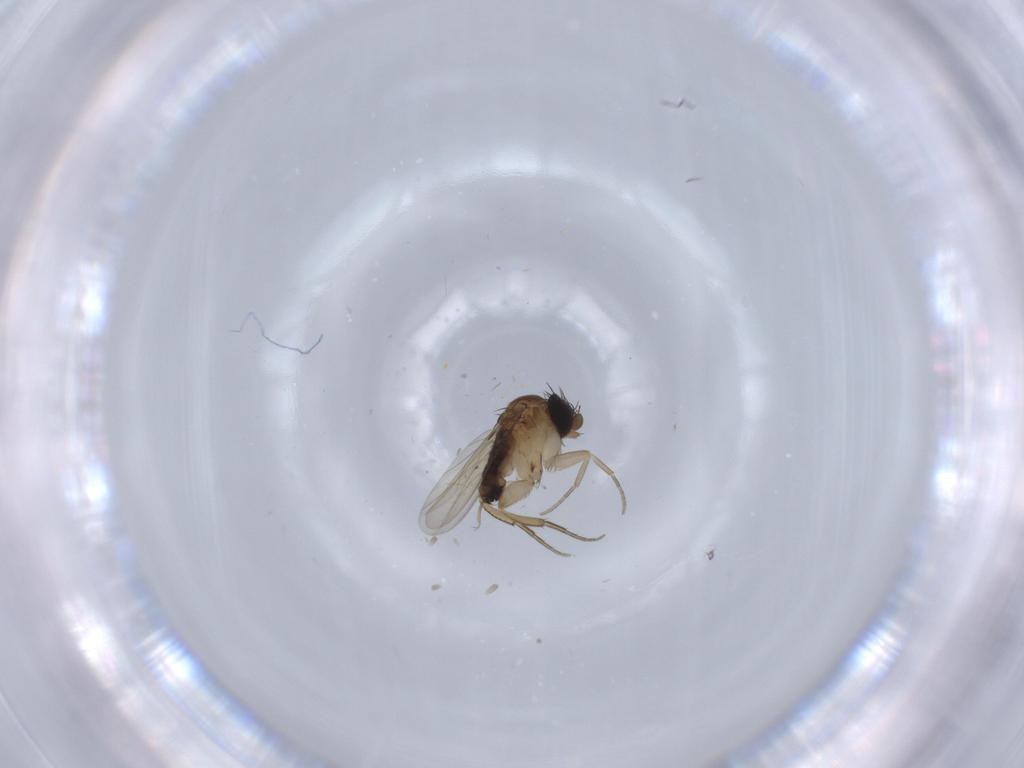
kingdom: Animalia
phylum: Arthropoda
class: Insecta
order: Diptera
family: Phoridae
